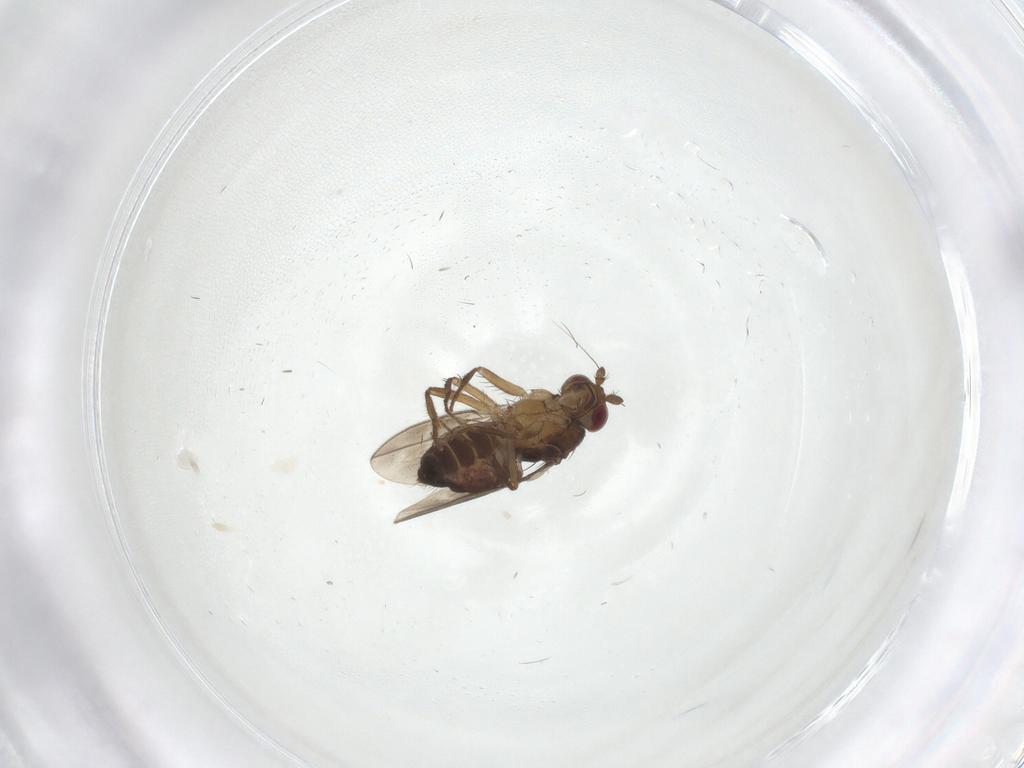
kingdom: Animalia
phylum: Arthropoda
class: Insecta
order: Diptera
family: Sphaeroceridae
